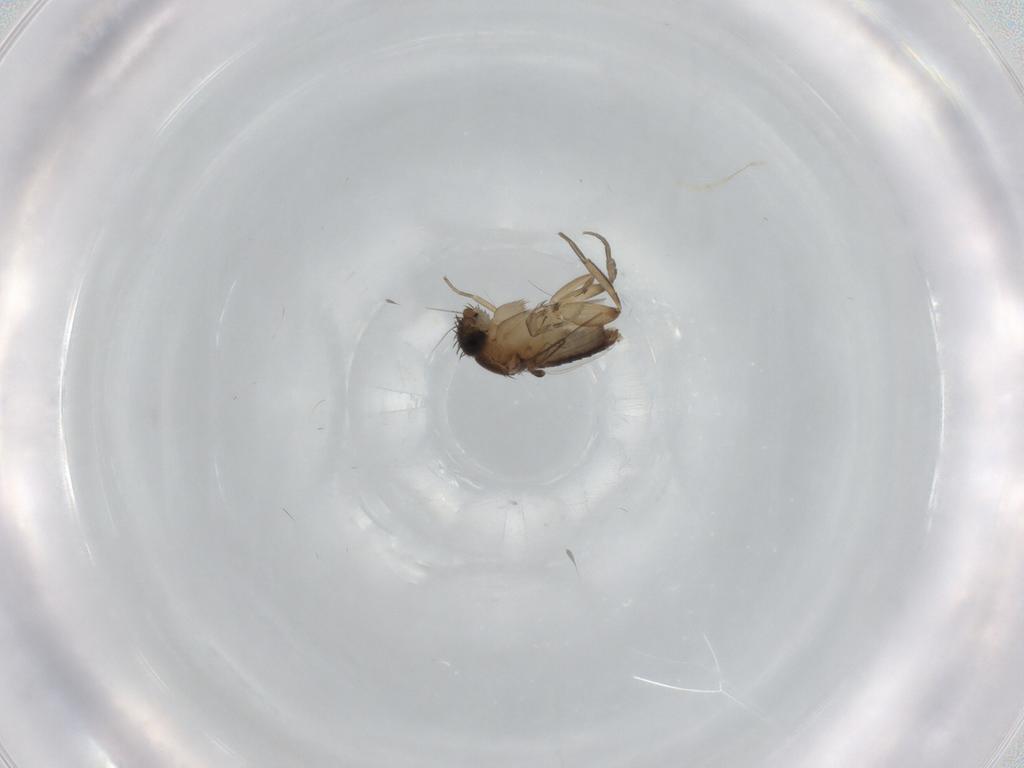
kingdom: Animalia
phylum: Arthropoda
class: Insecta
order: Diptera
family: Phoridae
